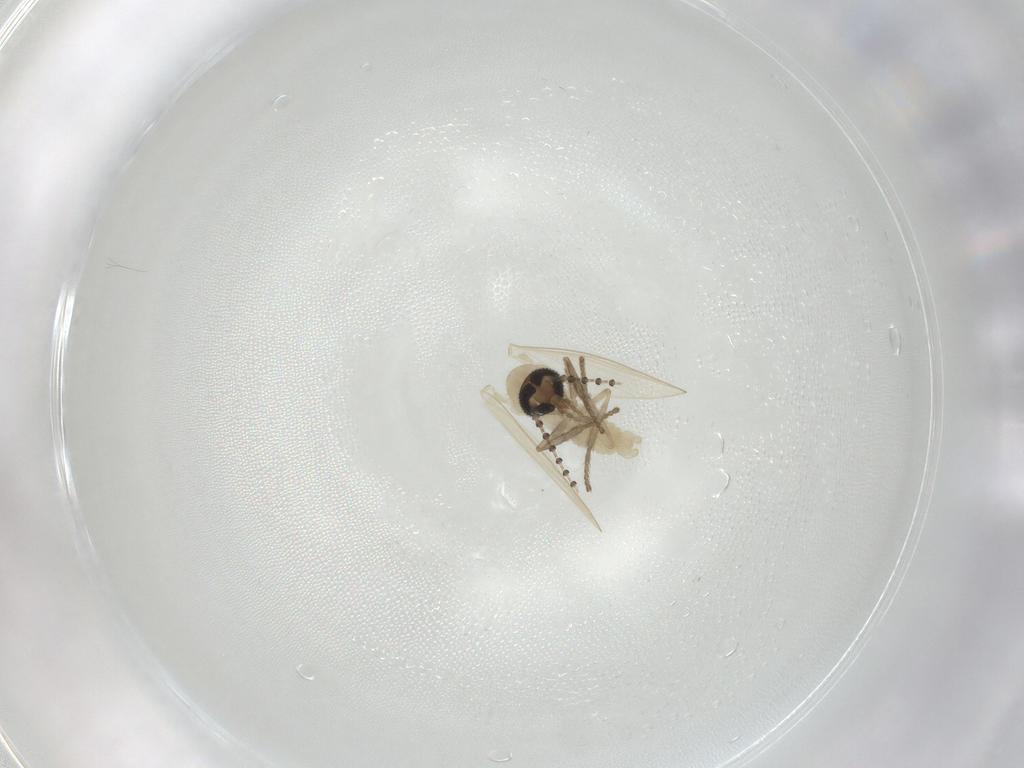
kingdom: Animalia
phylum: Arthropoda
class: Insecta
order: Diptera
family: Psychodidae
